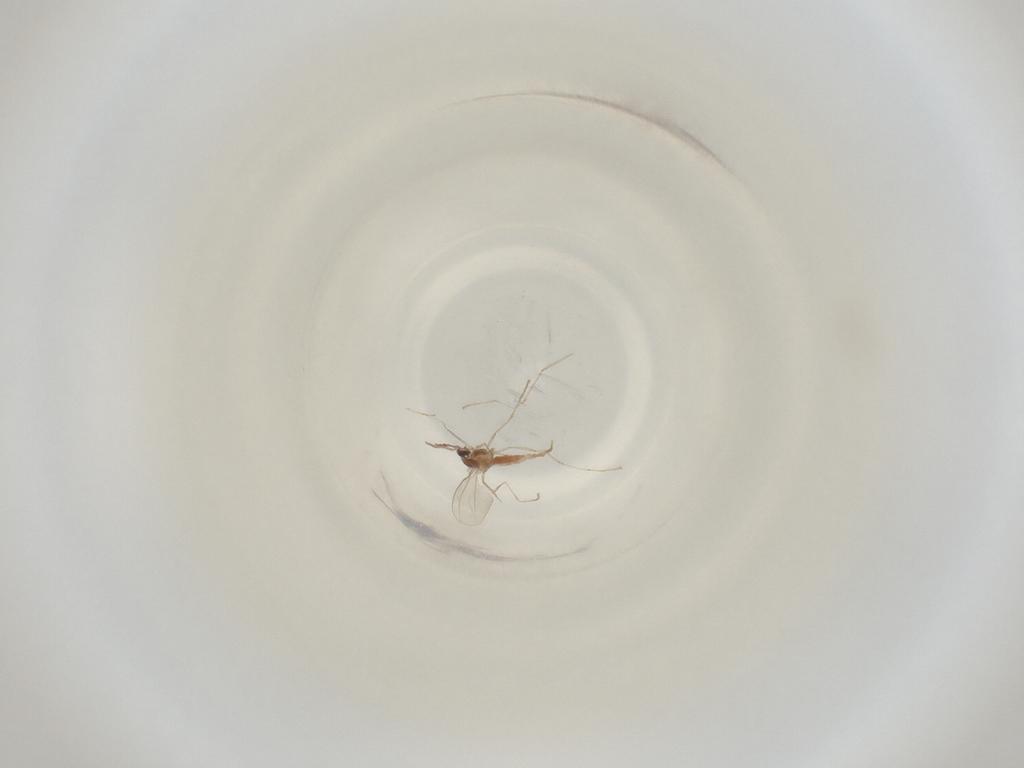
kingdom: Animalia
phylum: Arthropoda
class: Insecta
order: Diptera
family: Cecidomyiidae
